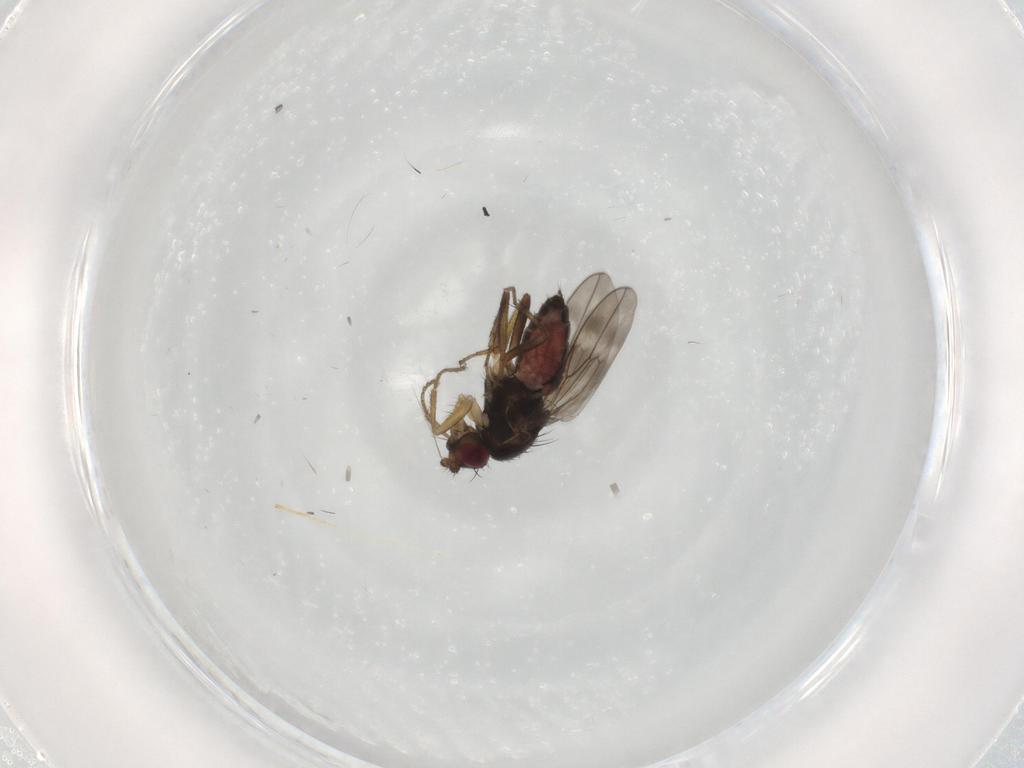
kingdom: Animalia
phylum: Arthropoda
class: Insecta
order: Diptera
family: Sphaeroceridae
